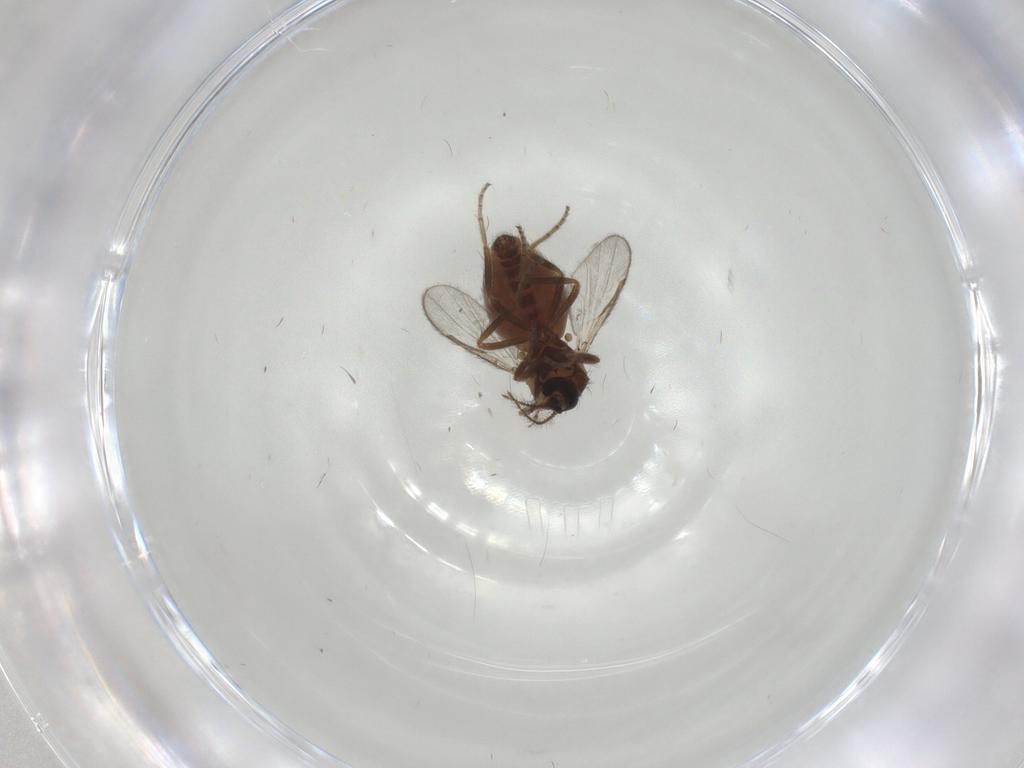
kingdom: Animalia
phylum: Arthropoda
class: Insecta
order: Diptera
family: Ceratopogonidae
